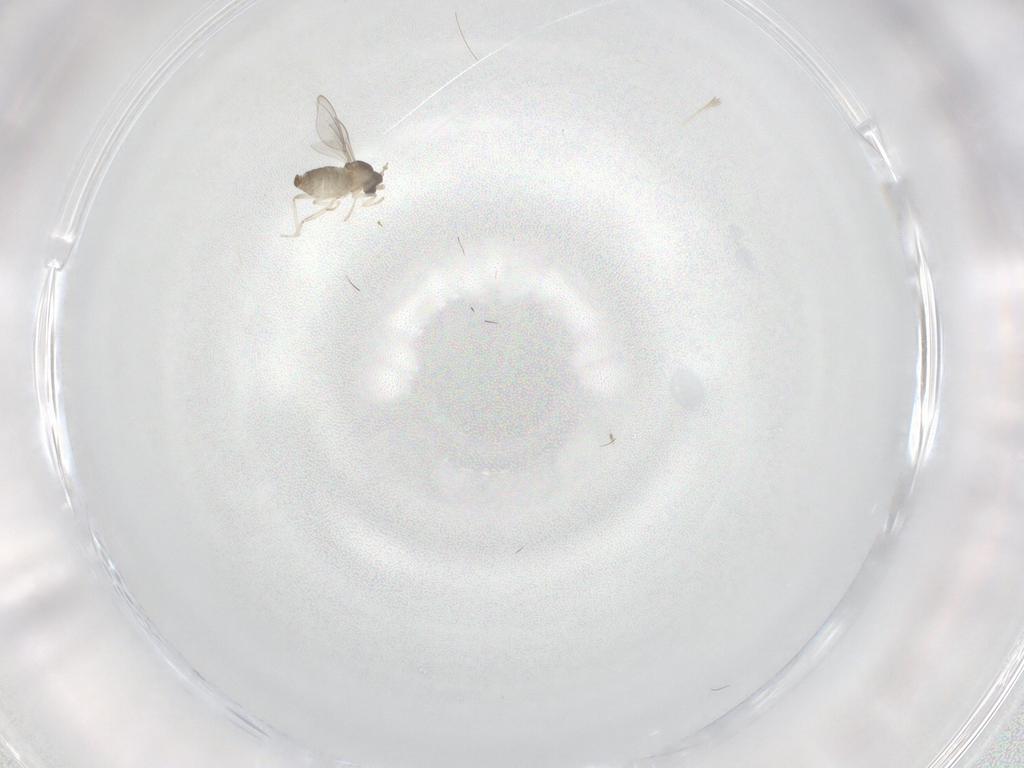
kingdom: Animalia
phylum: Arthropoda
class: Insecta
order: Diptera
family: Cecidomyiidae
